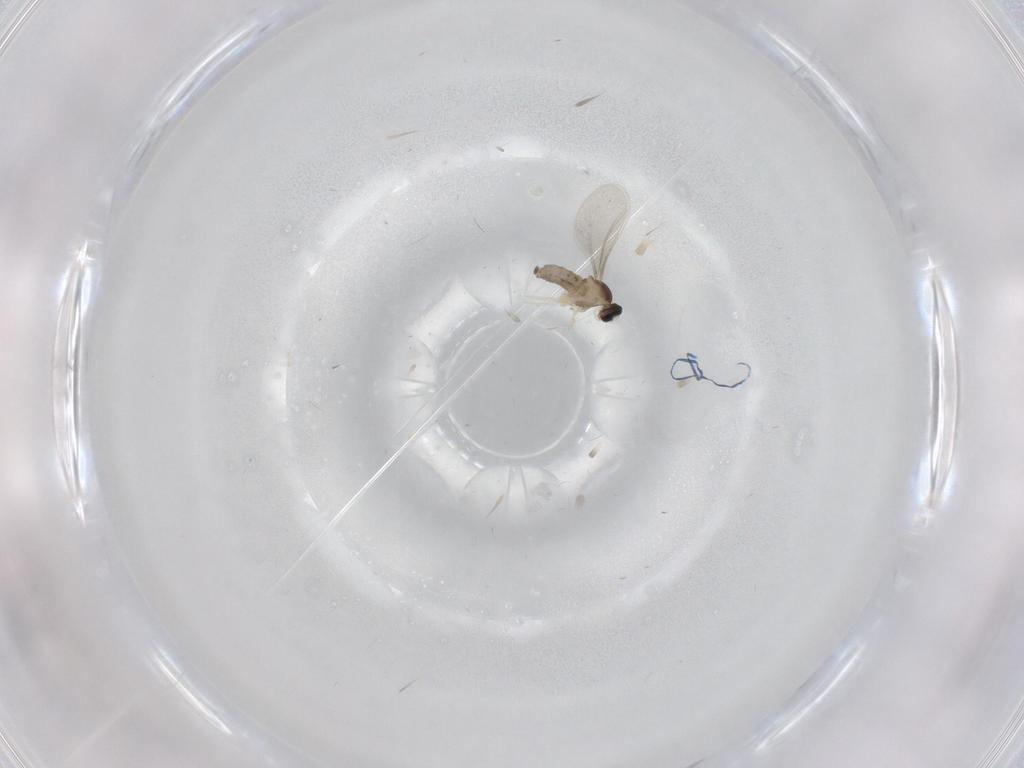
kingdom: Animalia
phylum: Arthropoda
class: Insecta
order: Diptera
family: Cecidomyiidae
